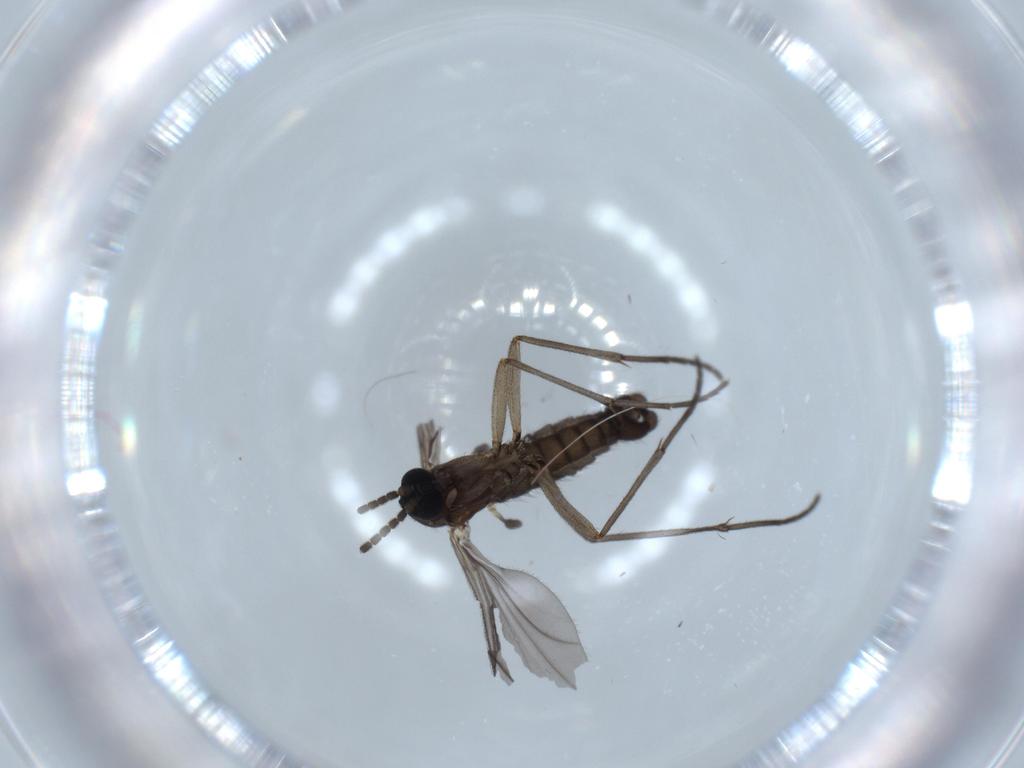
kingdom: Animalia
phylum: Arthropoda
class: Insecta
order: Diptera
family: Sciaridae
